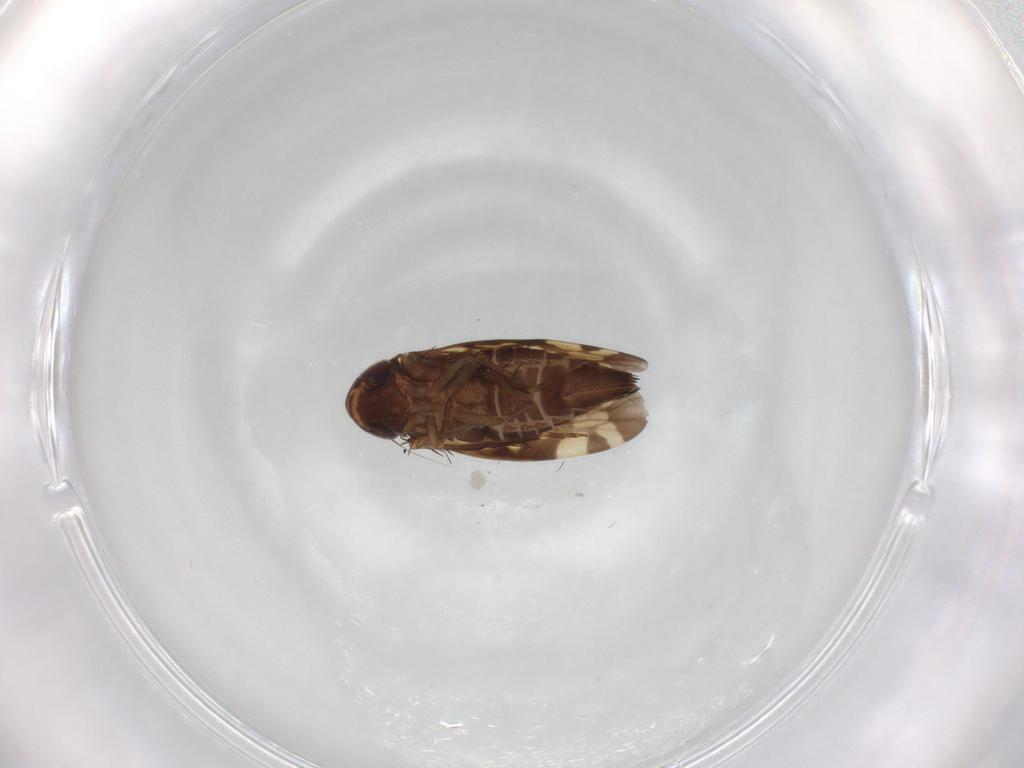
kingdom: Animalia
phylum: Arthropoda
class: Insecta
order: Hemiptera
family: Cicadellidae
